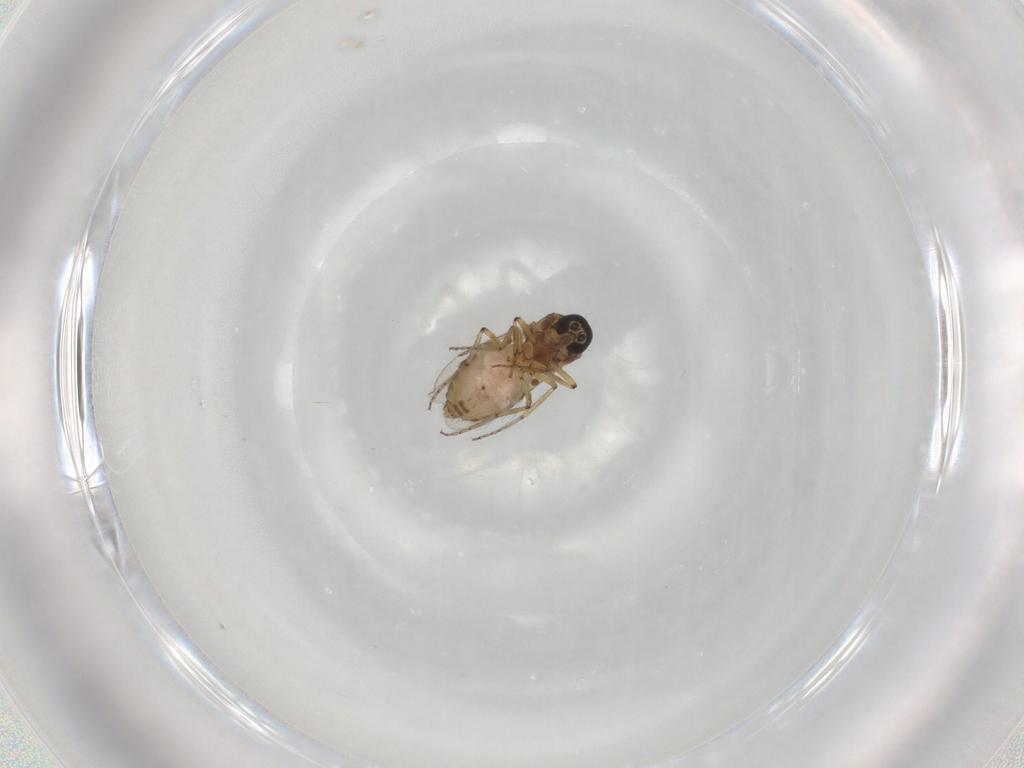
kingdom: Animalia
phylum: Arthropoda
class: Insecta
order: Diptera
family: Ceratopogonidae
